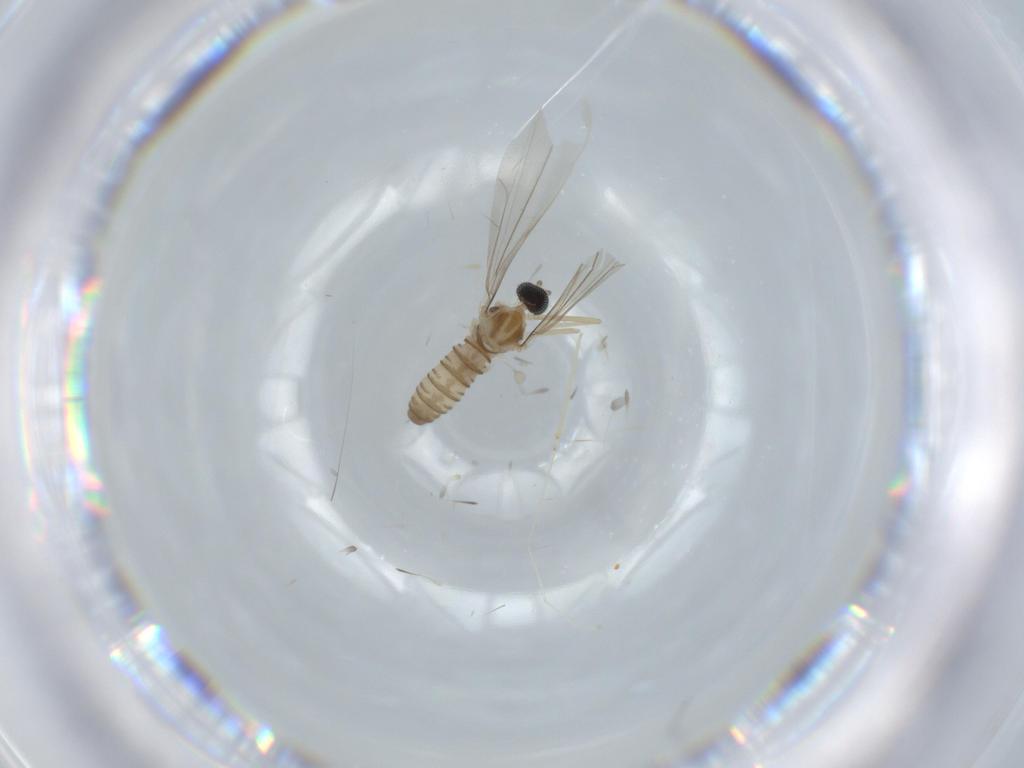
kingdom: Animalia
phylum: Arthropoda
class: Insecta
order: Diptera
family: Cecidomyiidae
